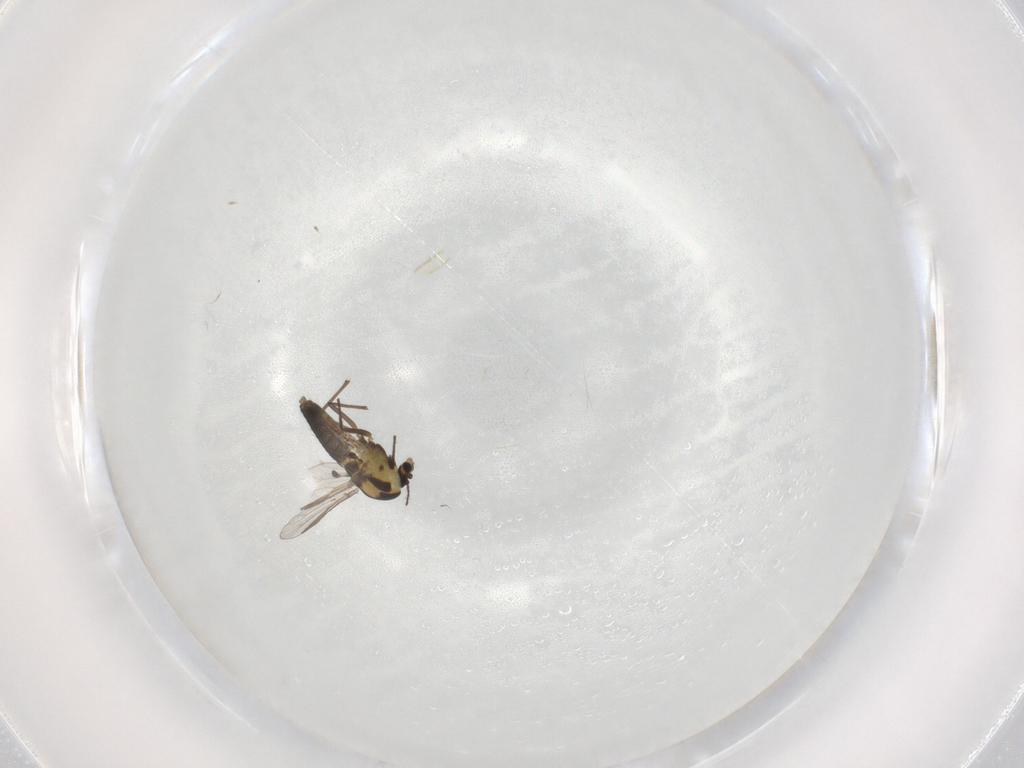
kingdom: Animalia
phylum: Arthropoda
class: Insecta
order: Diptera
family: Chironomidae
